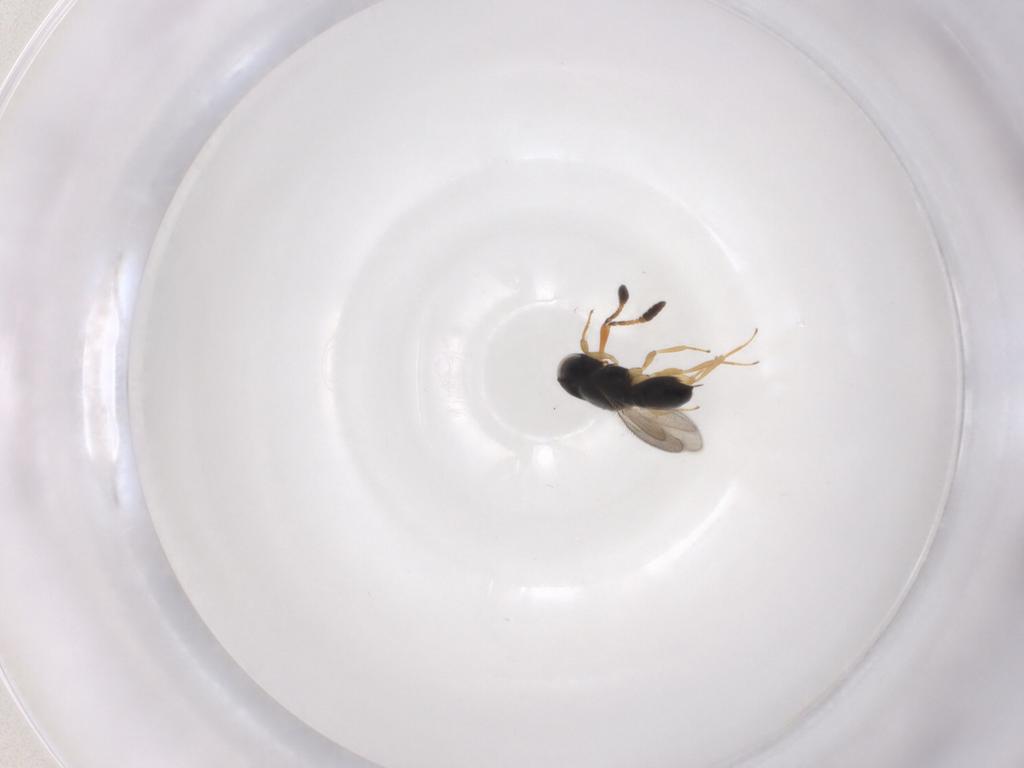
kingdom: Animalia
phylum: Arthropoda
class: Insecta
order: Hymenoptera
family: Scelionidae
